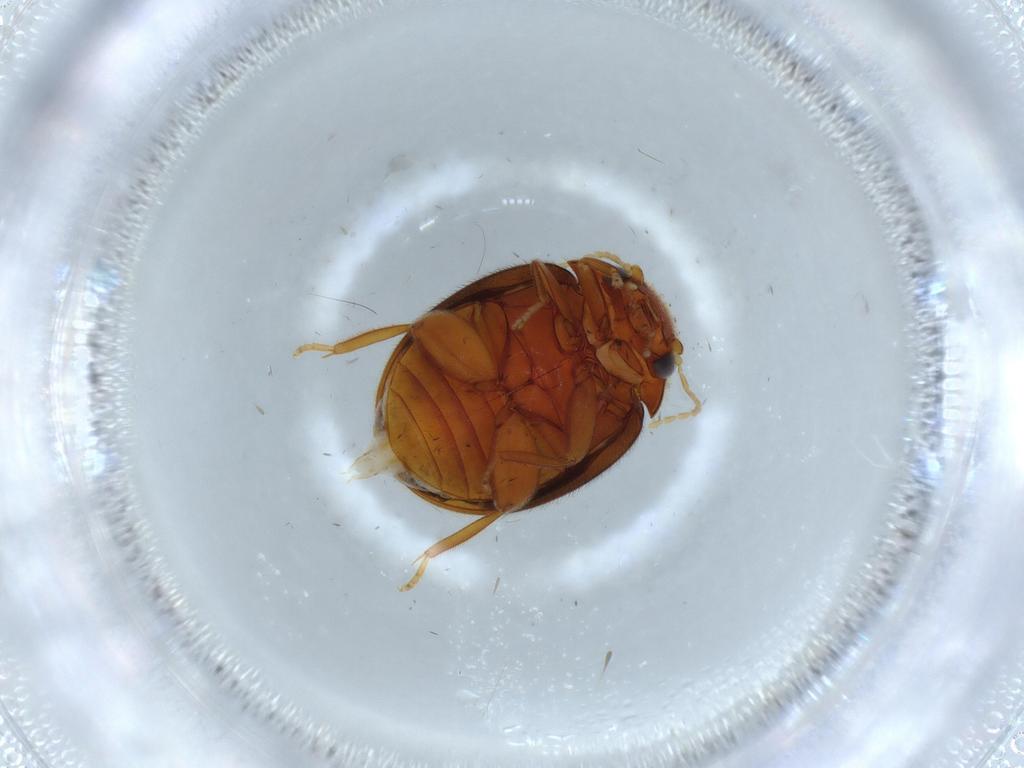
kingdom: Animalia
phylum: Arthropoda
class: Insecta
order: Coleoptera
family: Scirtidae
